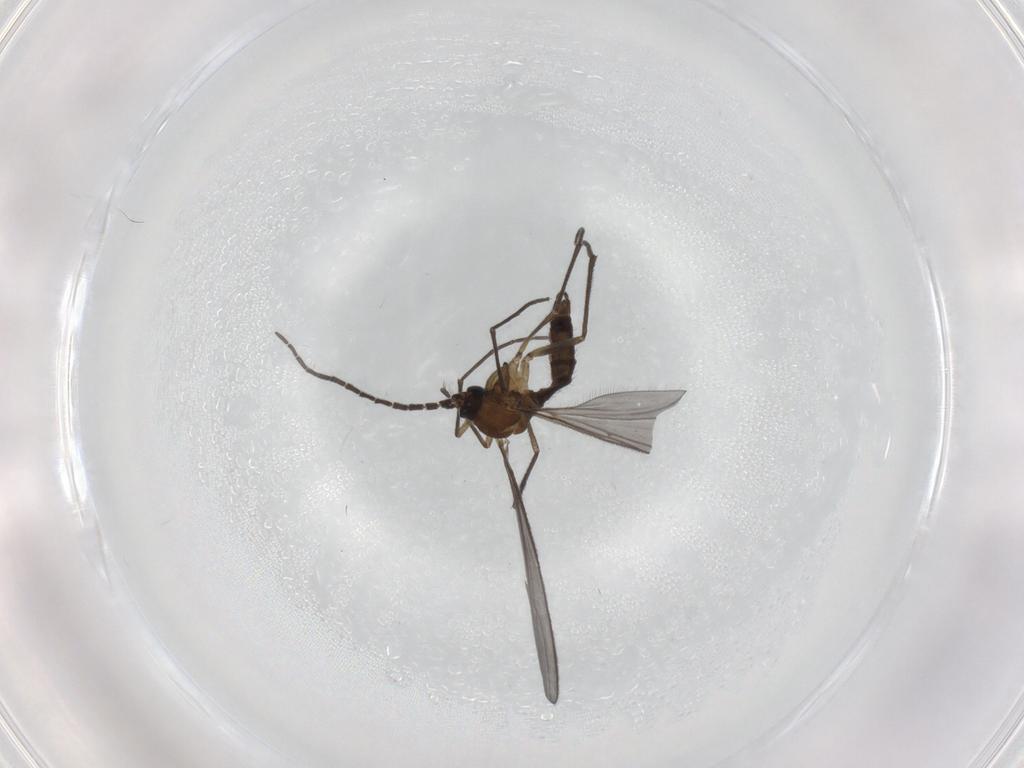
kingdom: Animalia
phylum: Arthropoda
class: Insecta
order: Diptera
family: Sciaridae
